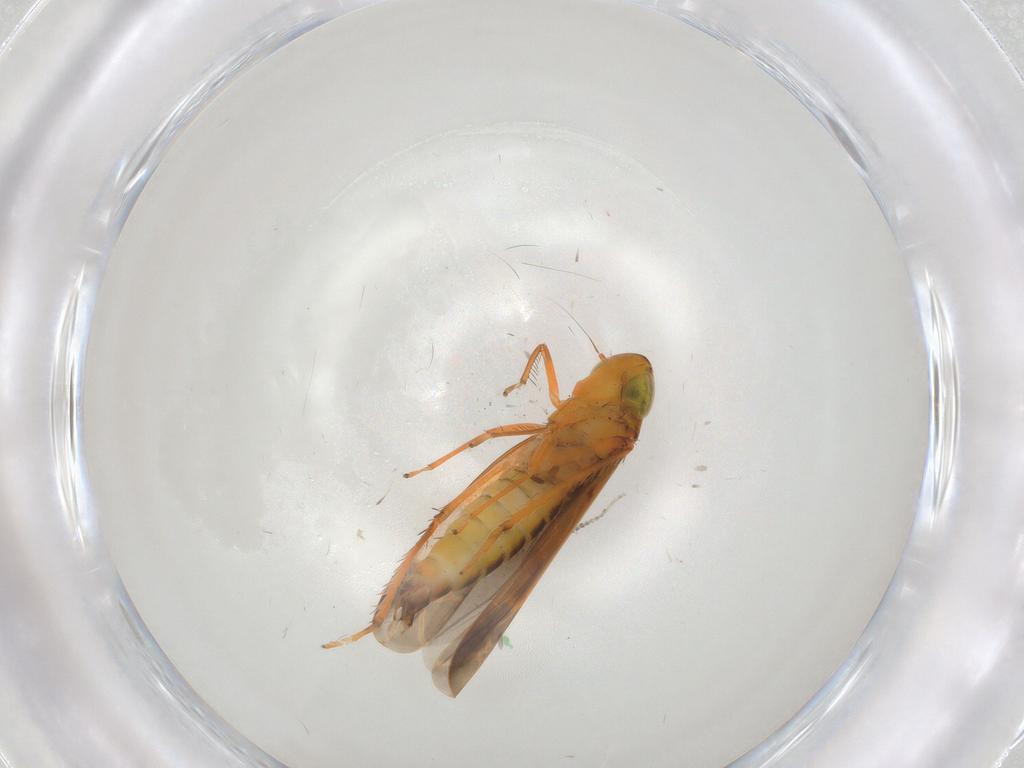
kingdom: Animalia
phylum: Arthropoda
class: Insecta
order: Hemiptera
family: Cicadellidae
